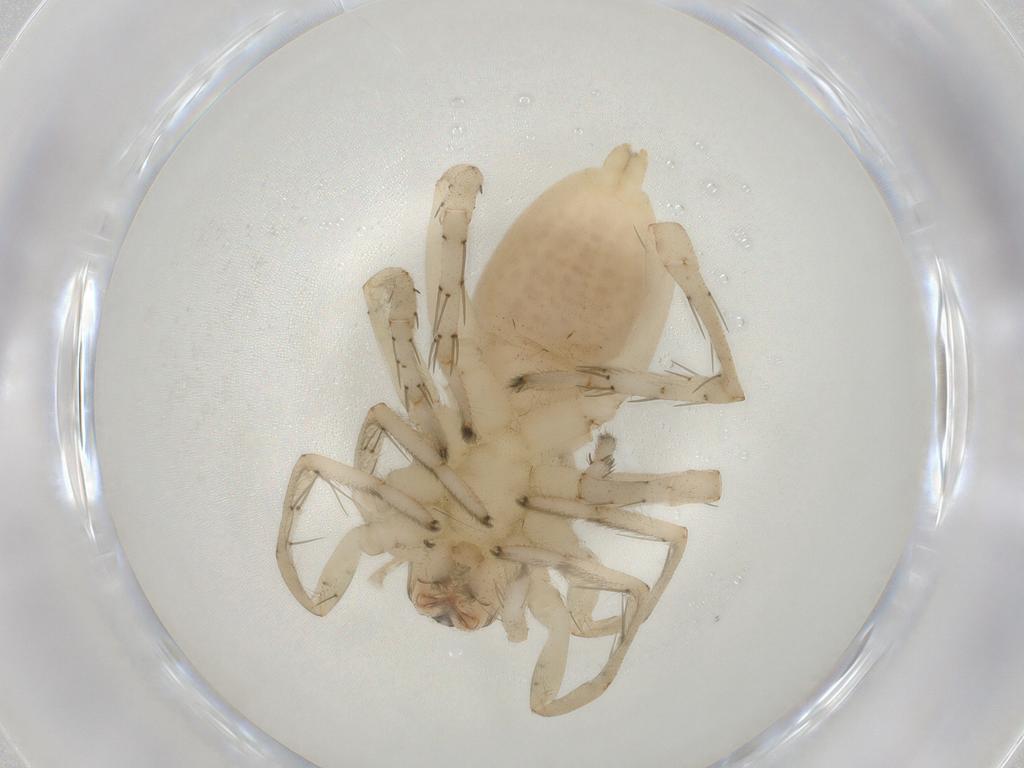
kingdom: Animalia
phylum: Arthropoda
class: Arachnida
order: Araneae
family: Clubionidae
